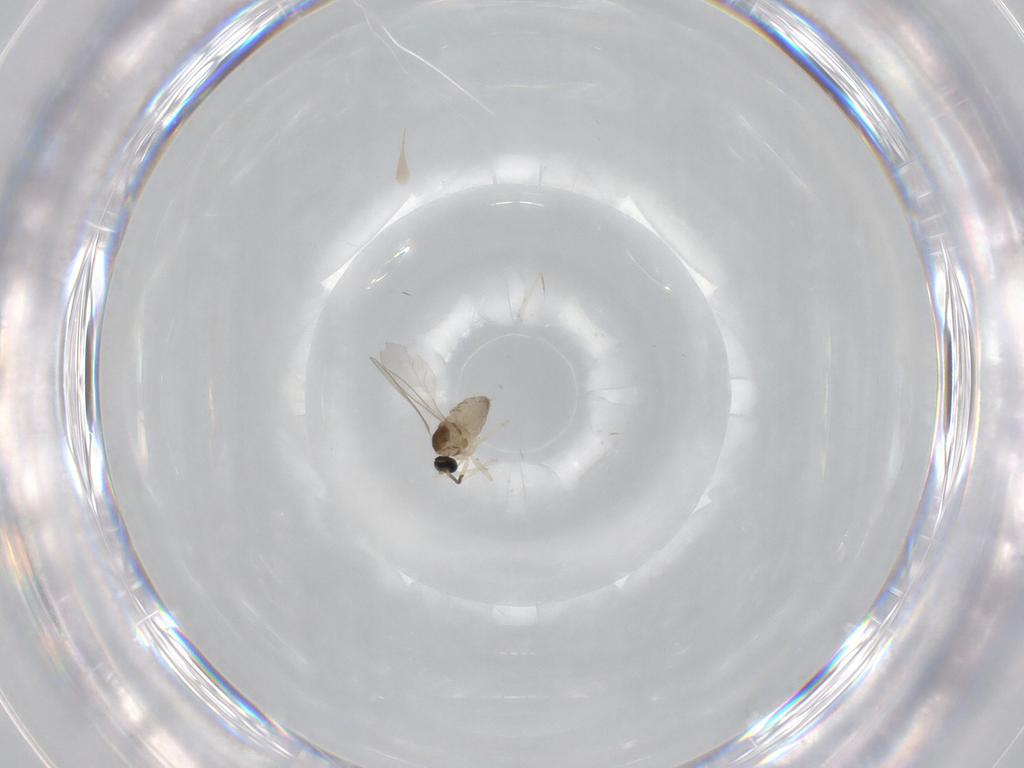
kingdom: Animalia
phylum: Arthropoda
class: Insecta
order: Diptera
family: Cecidomyiidae
